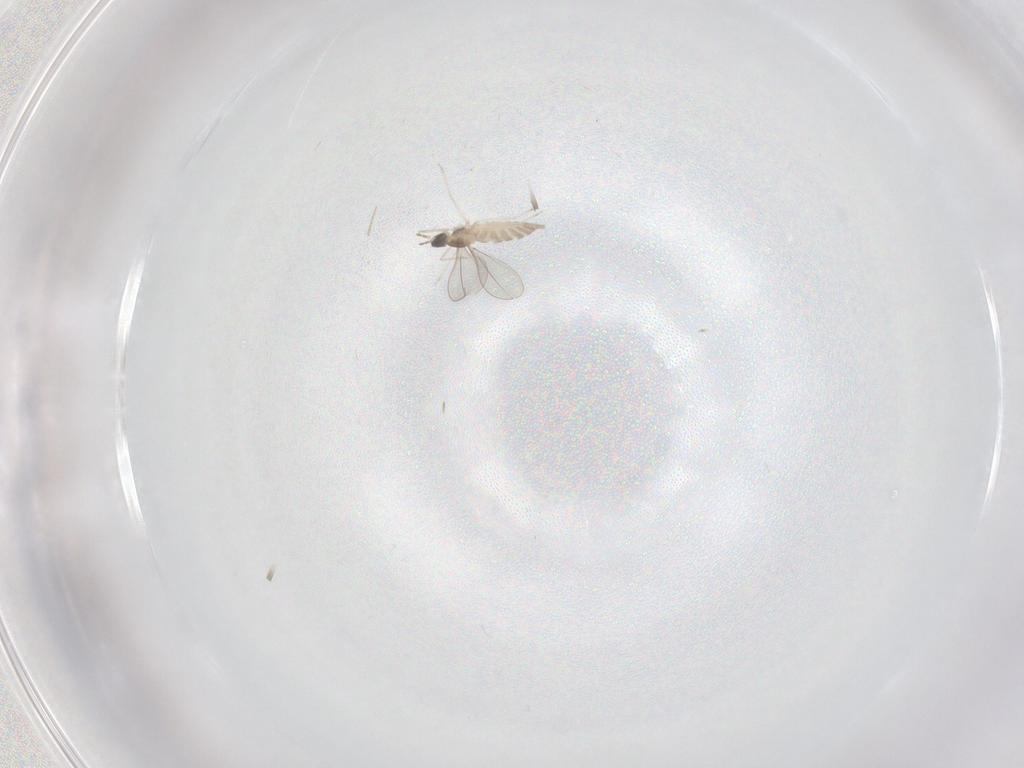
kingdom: Animalia
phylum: Arthropoda
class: Insecta
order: Diptera
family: Cecidomyiidae
